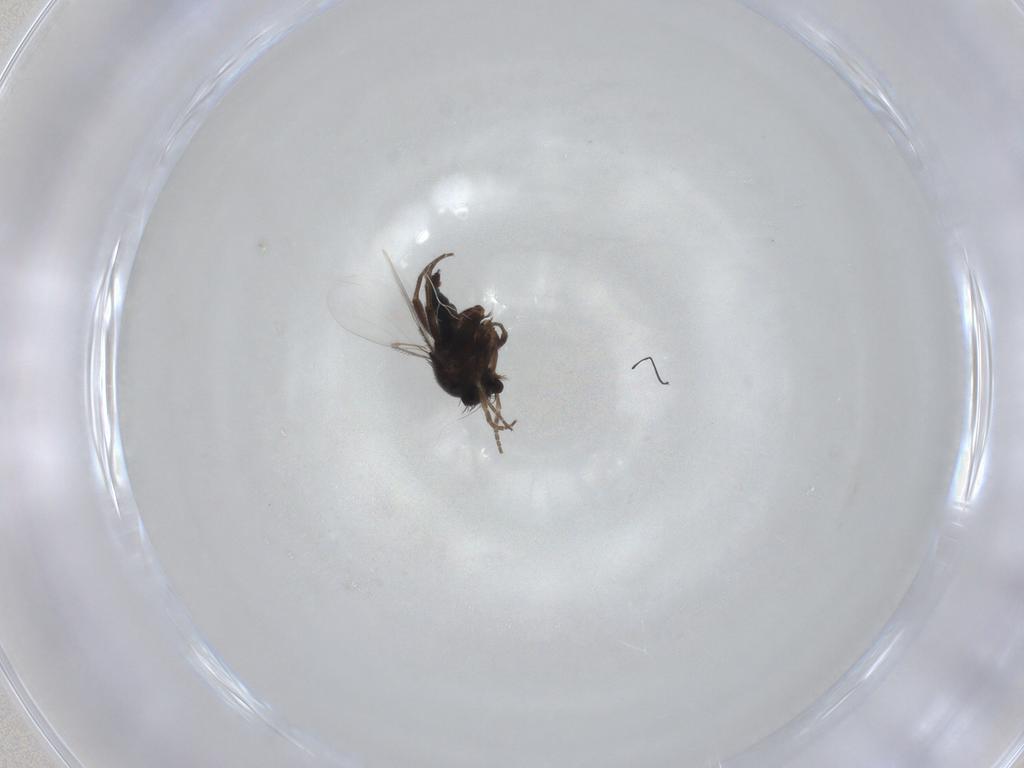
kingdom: Animalia
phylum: Arthropoda
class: Insecta
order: Diptera
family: Phoridae
